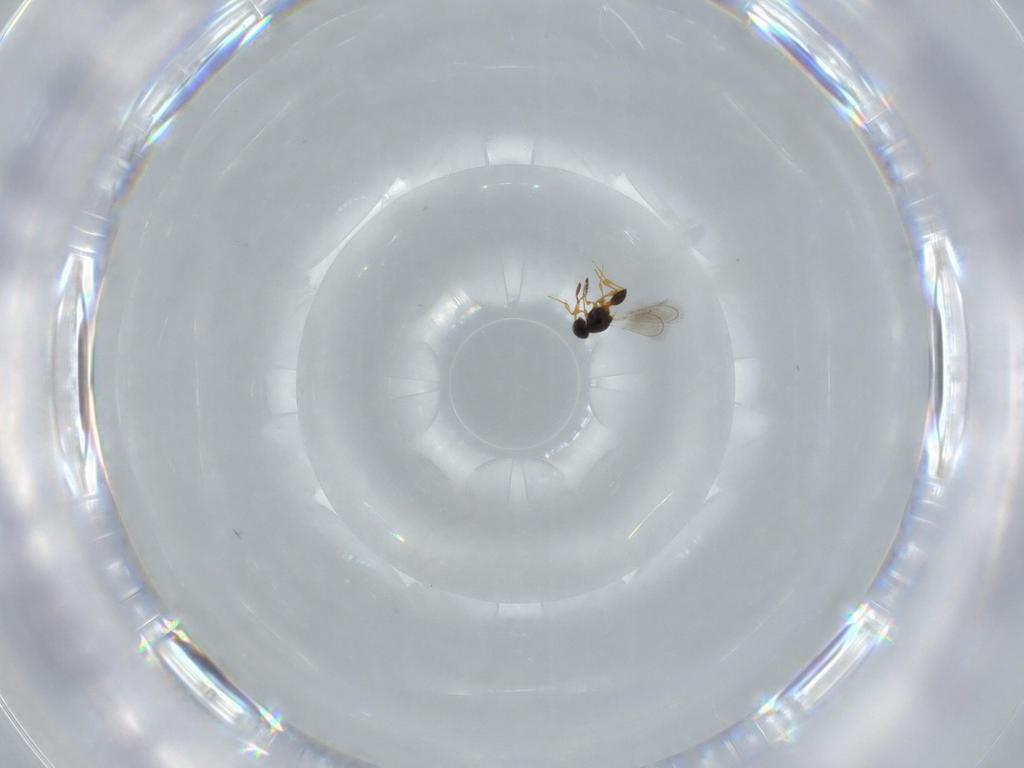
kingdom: Animalia
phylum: Arthropoda
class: Insecta
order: Hymenoptera
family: Platygastridae
